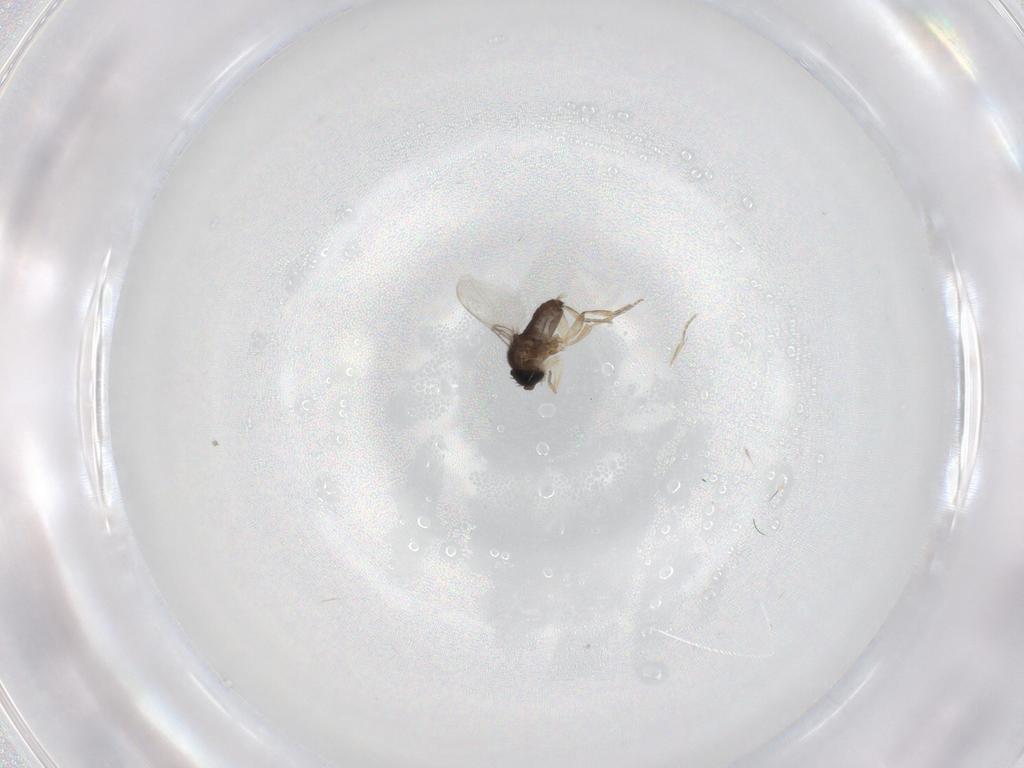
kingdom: Animalia
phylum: Arthropoda
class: Insecta
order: Diptera
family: Phoridae
